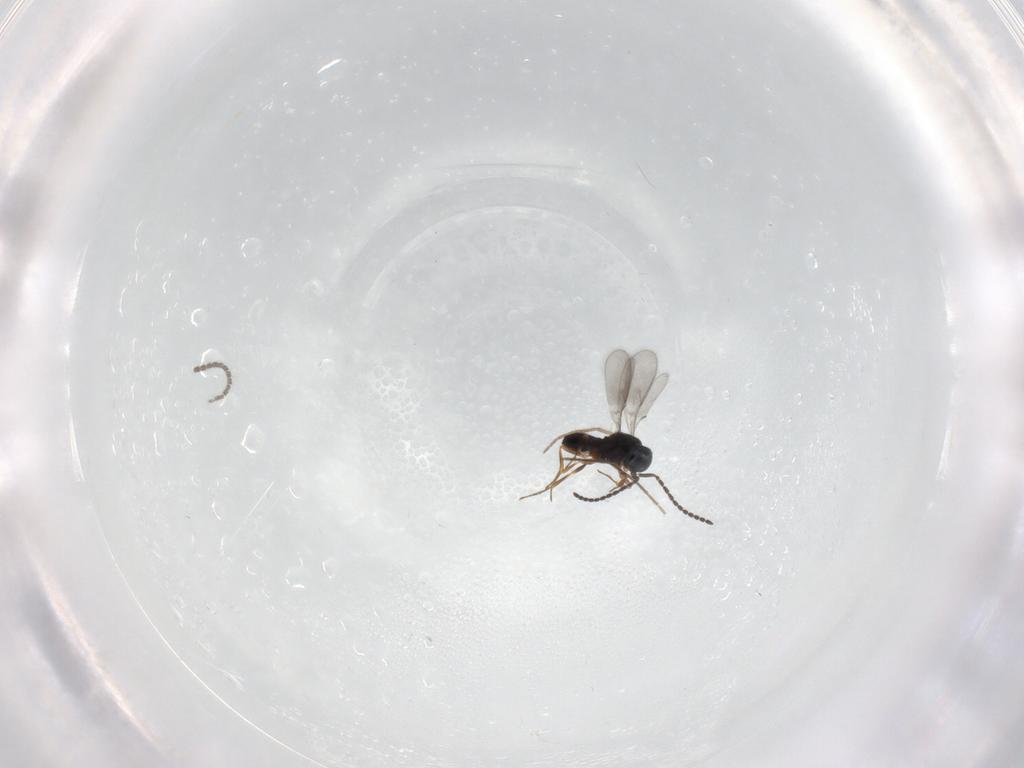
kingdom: Animalia
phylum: Arthropoda
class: Insecta
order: Hymenoptera
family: Scelionidae
